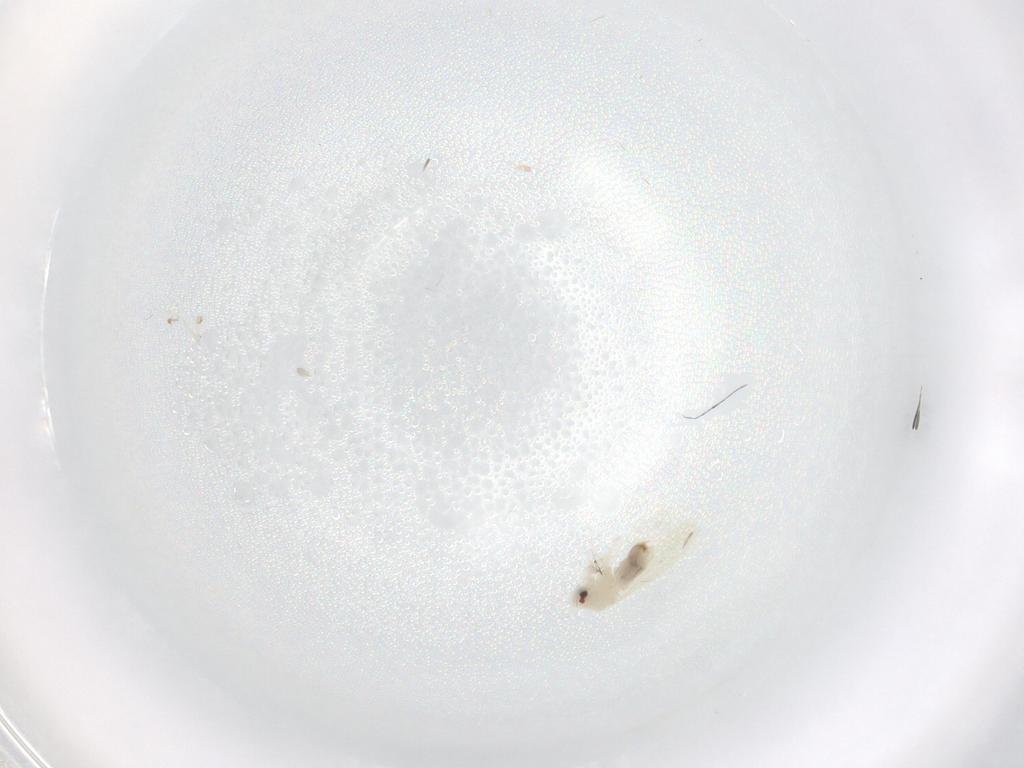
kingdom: Animalia
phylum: Arthropoda
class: Insecta
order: Hemiptera
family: Aleyrodidae
